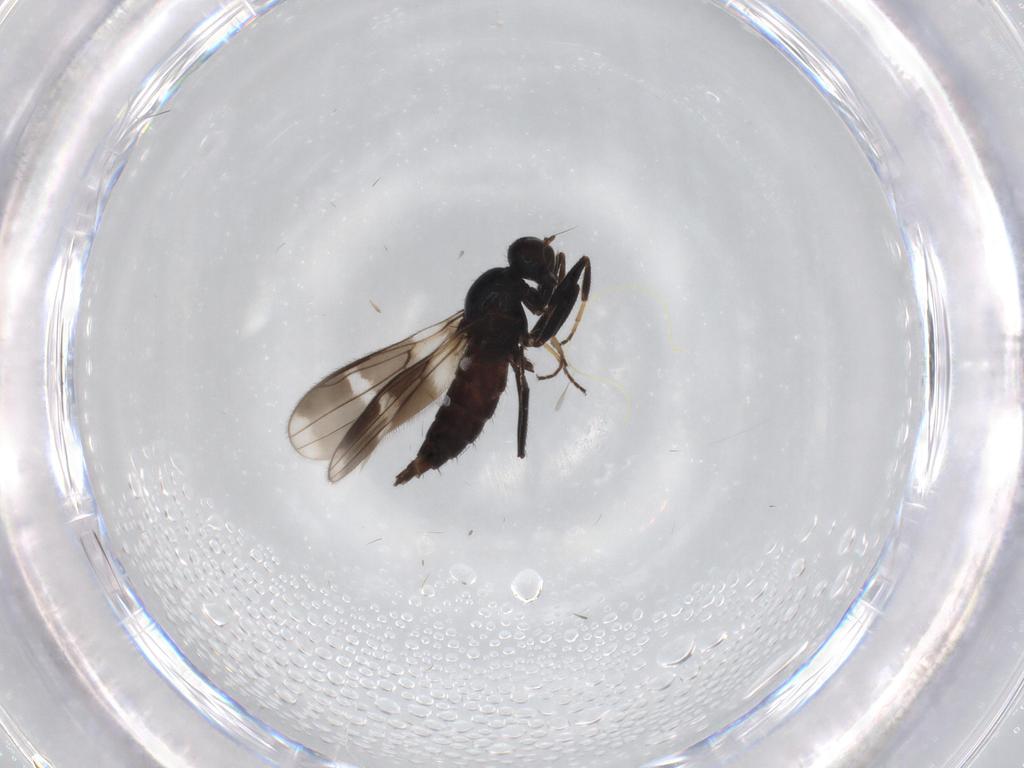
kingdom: Animalia
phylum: Arthropoda
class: Insecta
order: Diptera
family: Hybotidae
